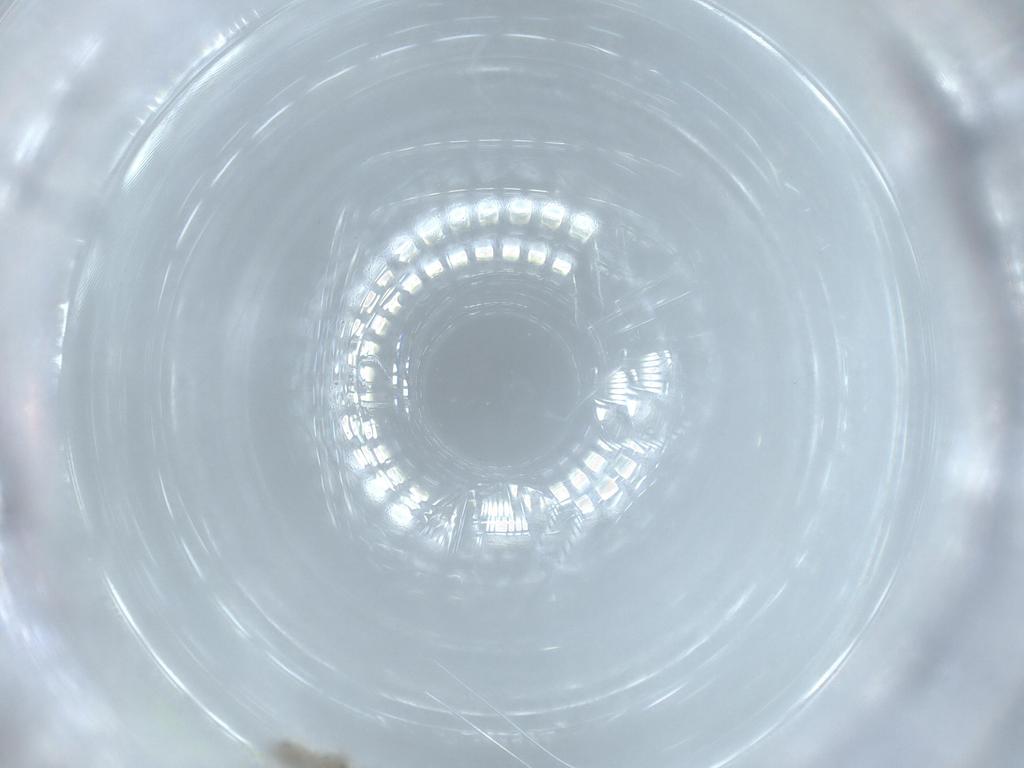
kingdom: Animalia
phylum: Arthropoda
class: Insecta
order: Diptera
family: Cecidomyiidae
